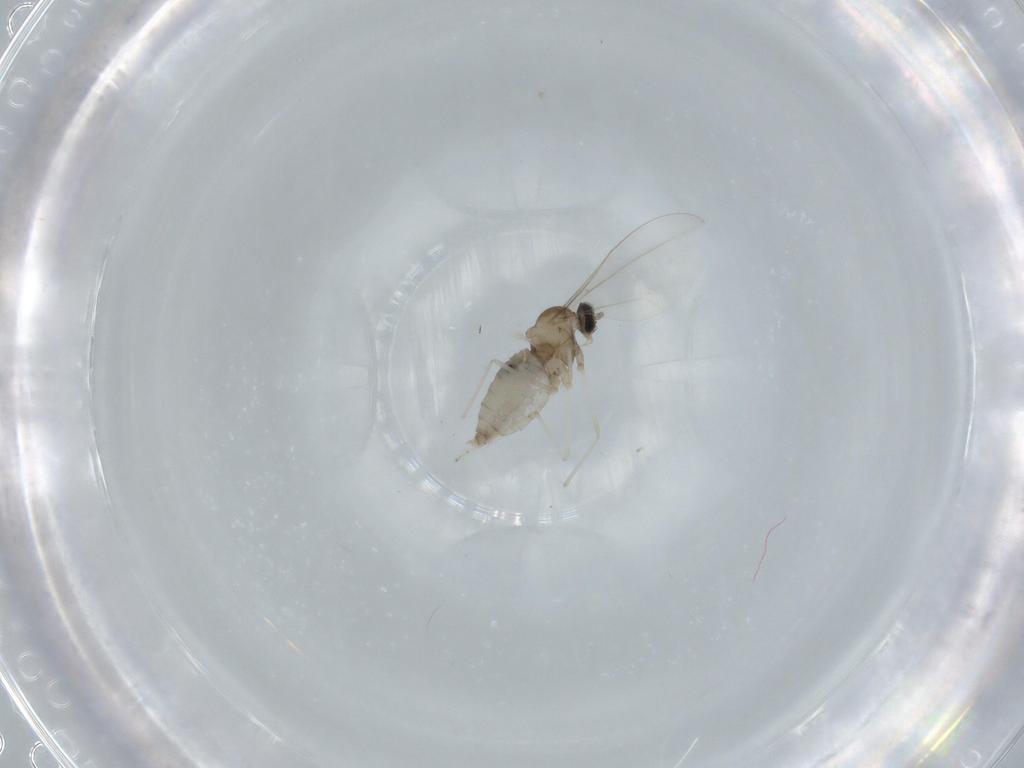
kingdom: Animalia
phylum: Arthropoda
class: Insecta
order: Diptera
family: Cecidomyiidae
